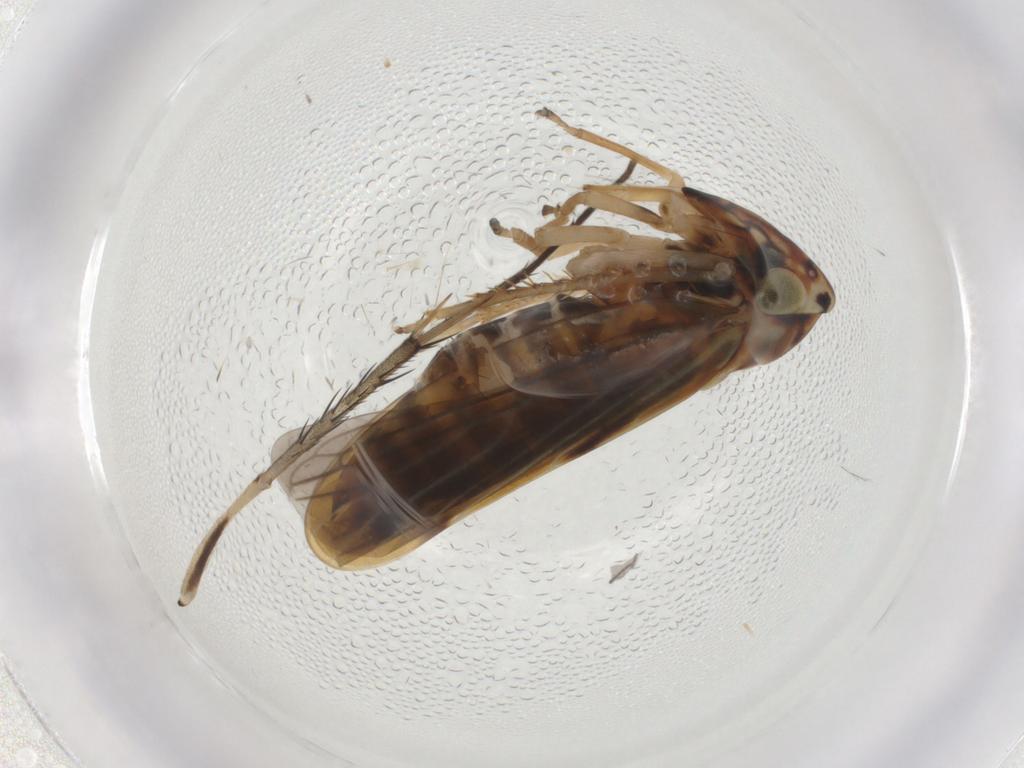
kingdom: Animalia
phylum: Arthropoda
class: Insecta
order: Hemiptera
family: Cicadellidae
